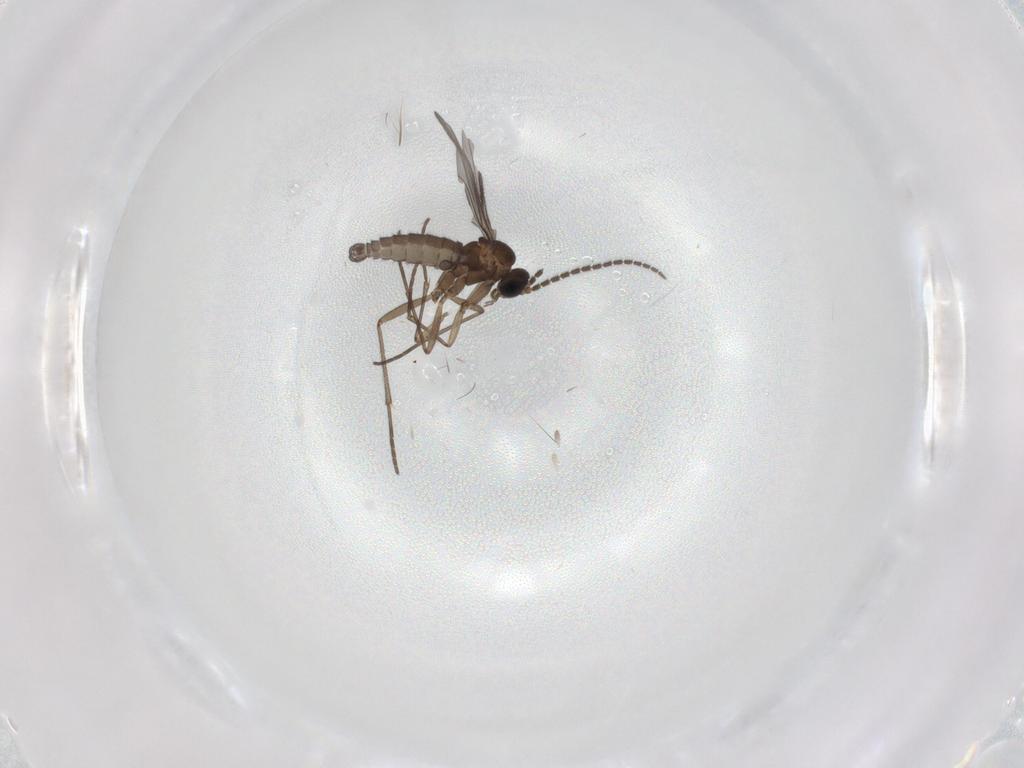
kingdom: Animalia
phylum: Arthropoda
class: Insecta
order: Diptera
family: Sciaridae
